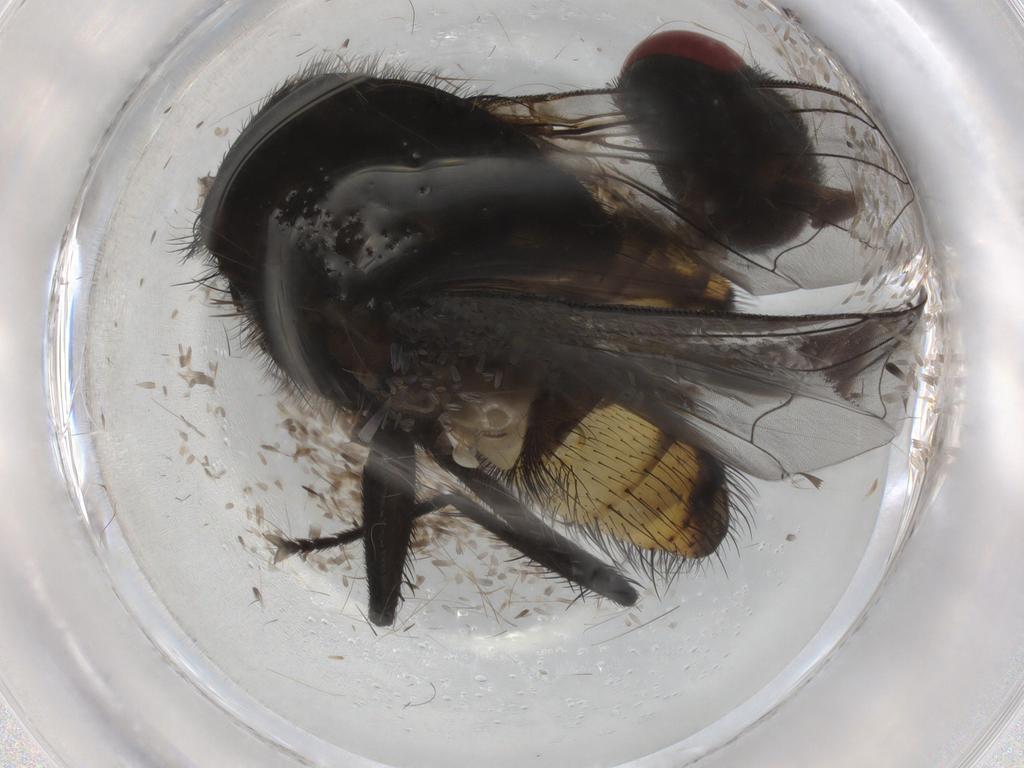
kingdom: Animalia
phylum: Arthropoda
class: Insecta
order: Diptera
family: Muscidae
